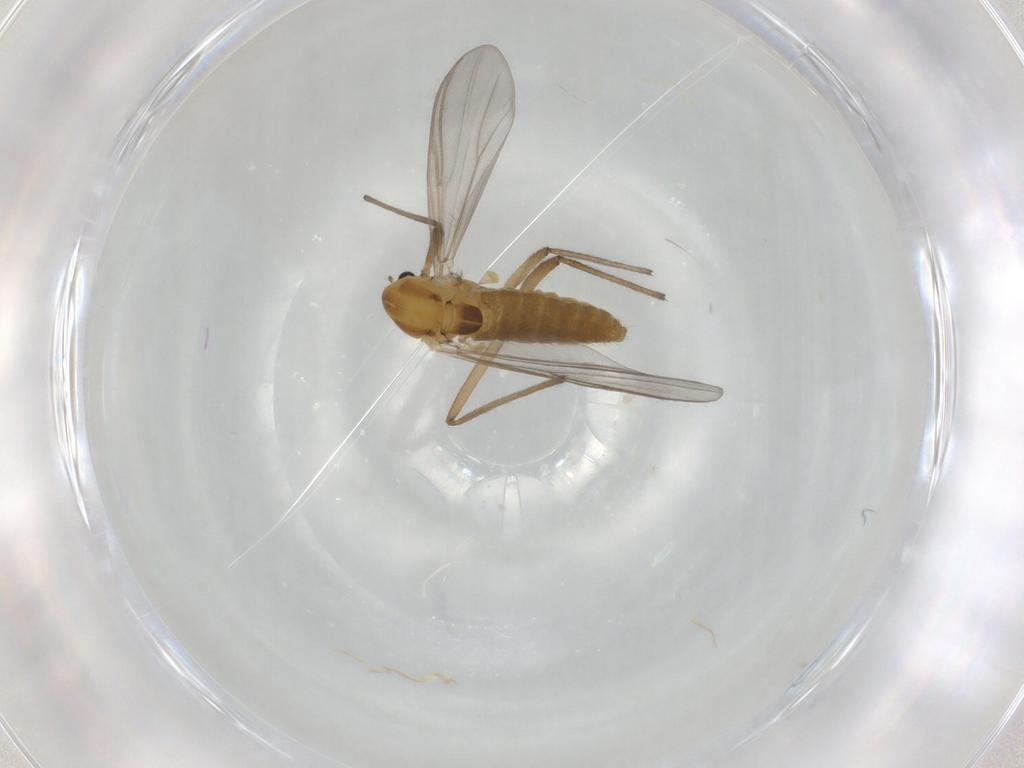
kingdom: Animalia
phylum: Arthropoda
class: Insecta
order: Diptera
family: Chironomidae
